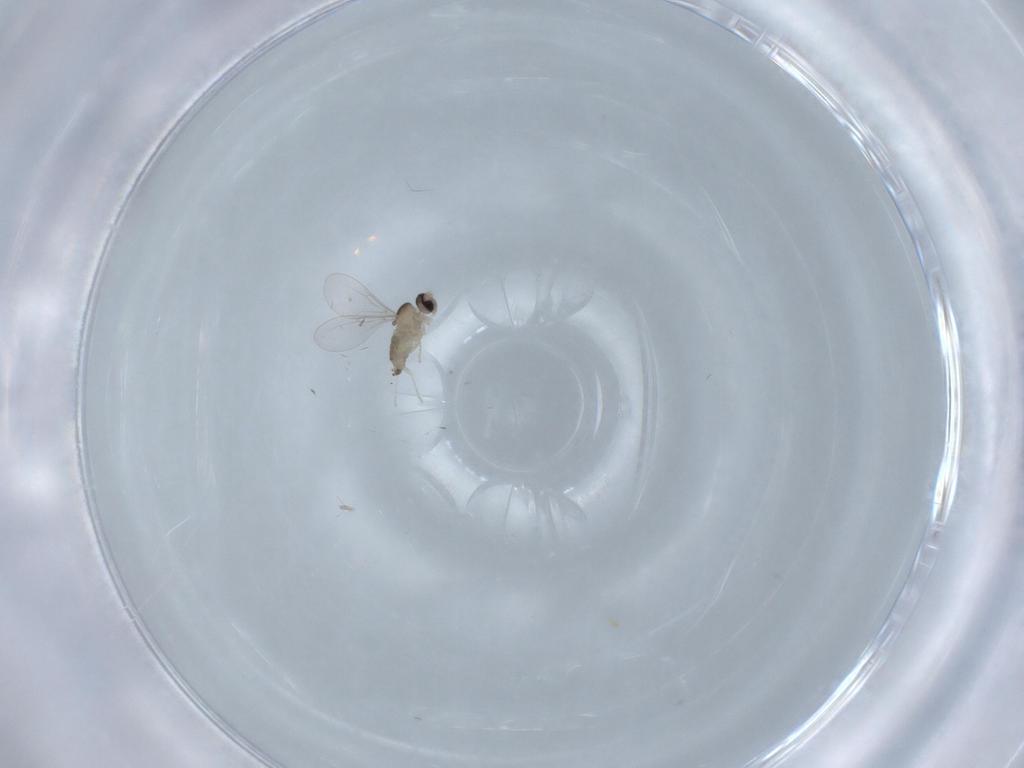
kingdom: Animalia
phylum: Arthropoda
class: Insecta
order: Diptera
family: Cecidomyiidae
